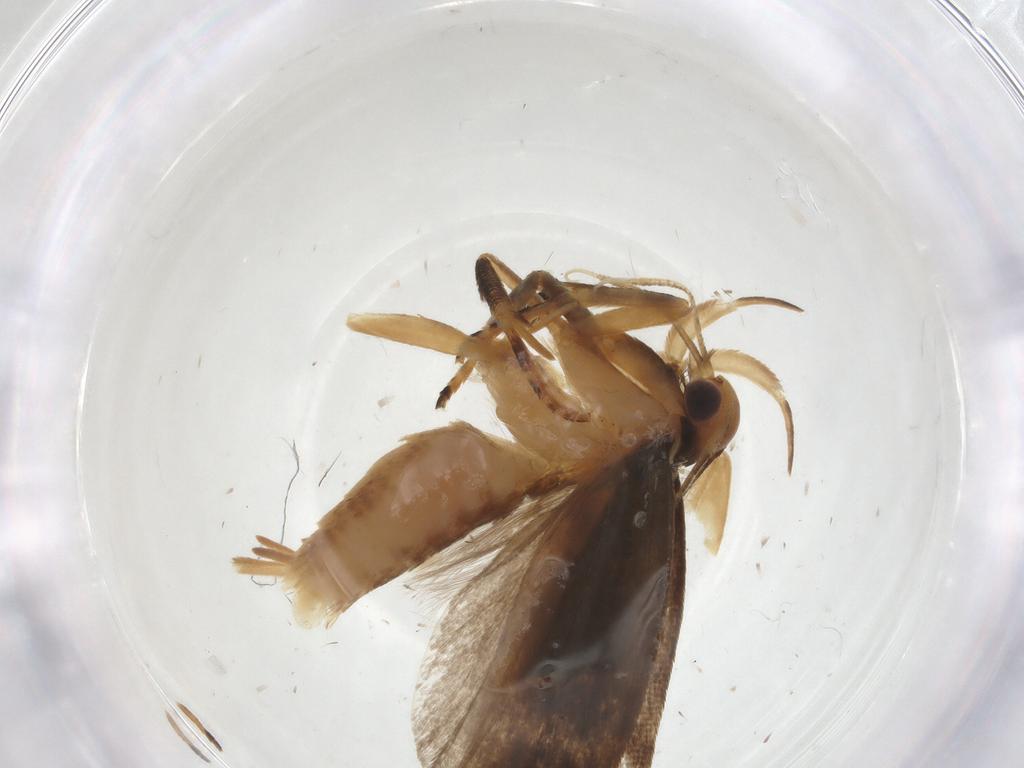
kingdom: Animalia
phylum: Arthropoda
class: Insecta
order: Lepidoptera
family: Gelechiidae
